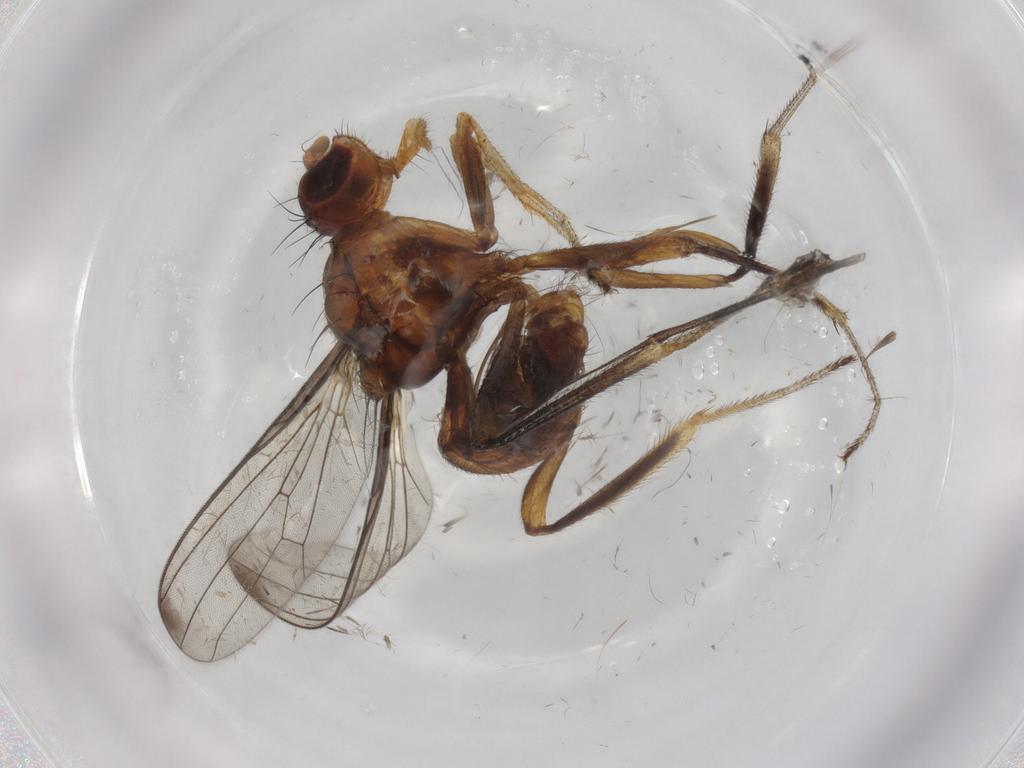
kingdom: Animalia
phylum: Arthropoda
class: Insecta
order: Diptera
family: Sepsidae
